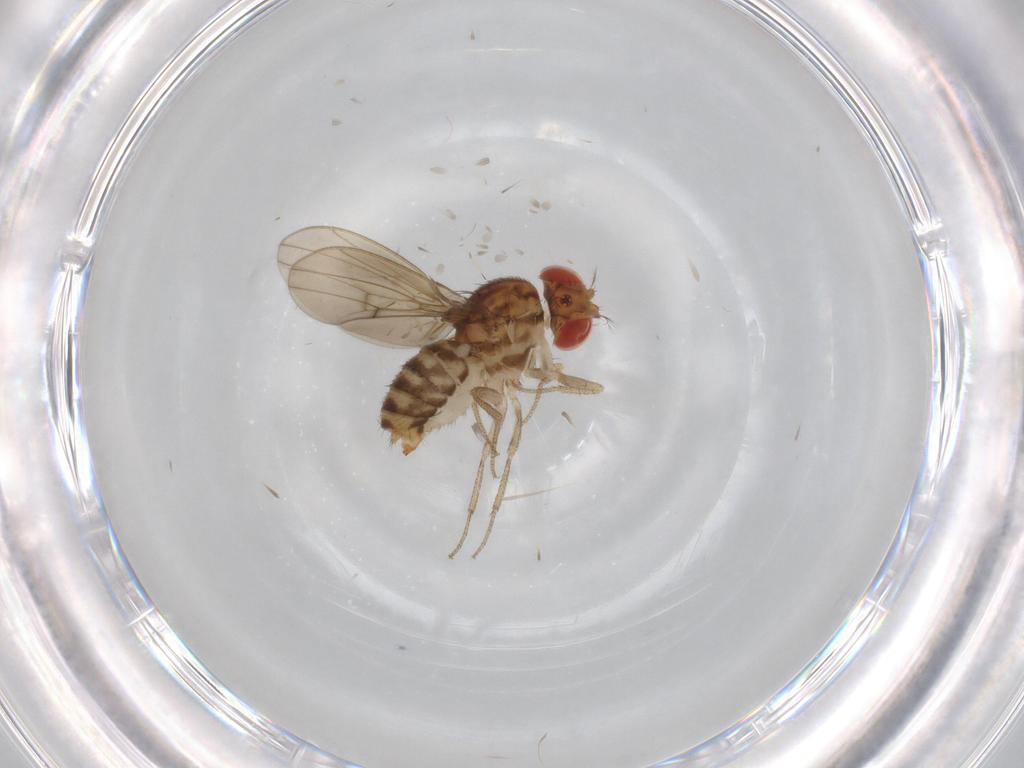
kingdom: Animalia
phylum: Arthropoda
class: Insecta
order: Diptera
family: Drosophilidae
